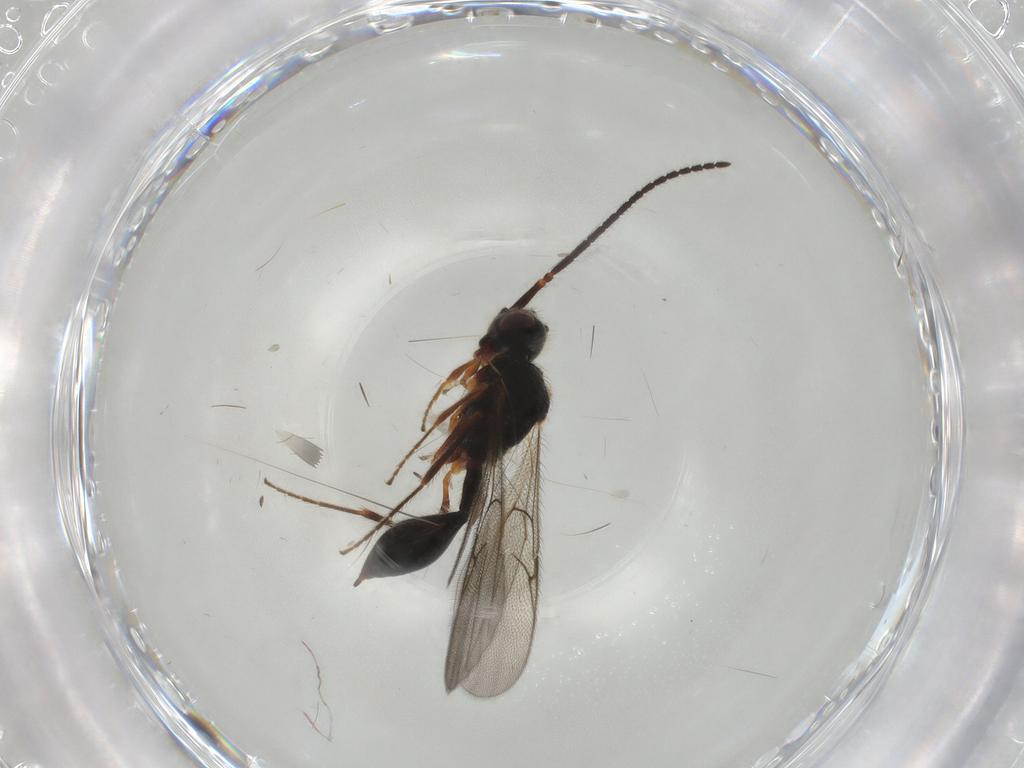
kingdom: Animalia
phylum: Arthropoda
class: Insecta
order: Hymenoptera
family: Diapriidae
